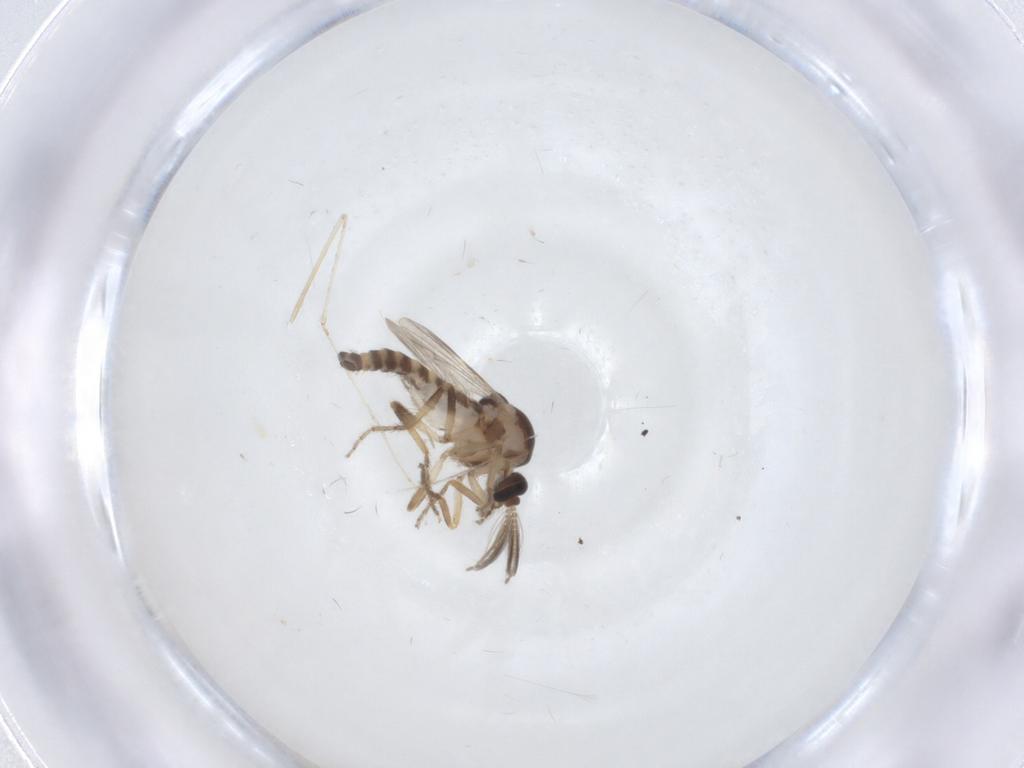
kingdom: Animalia
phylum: Arthropoda
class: Insecta
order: Diptera
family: Ceratopogonidae
